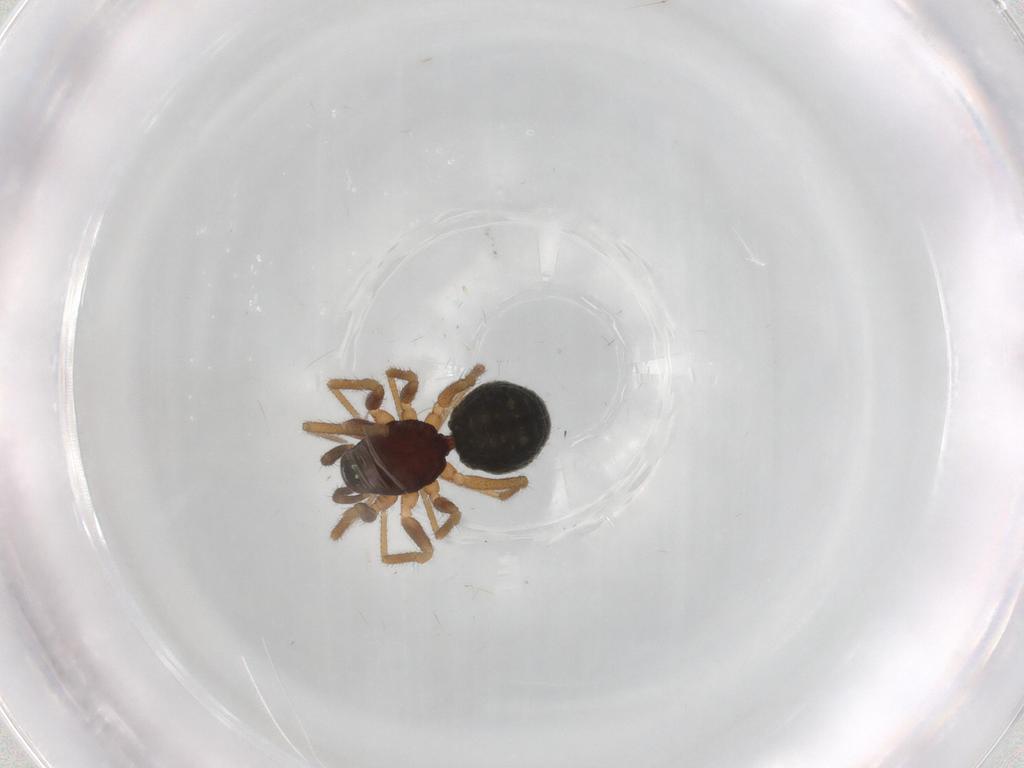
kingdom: Animalia
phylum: Arthropoda
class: Arachnida
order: Araneae
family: Linyphiidae
